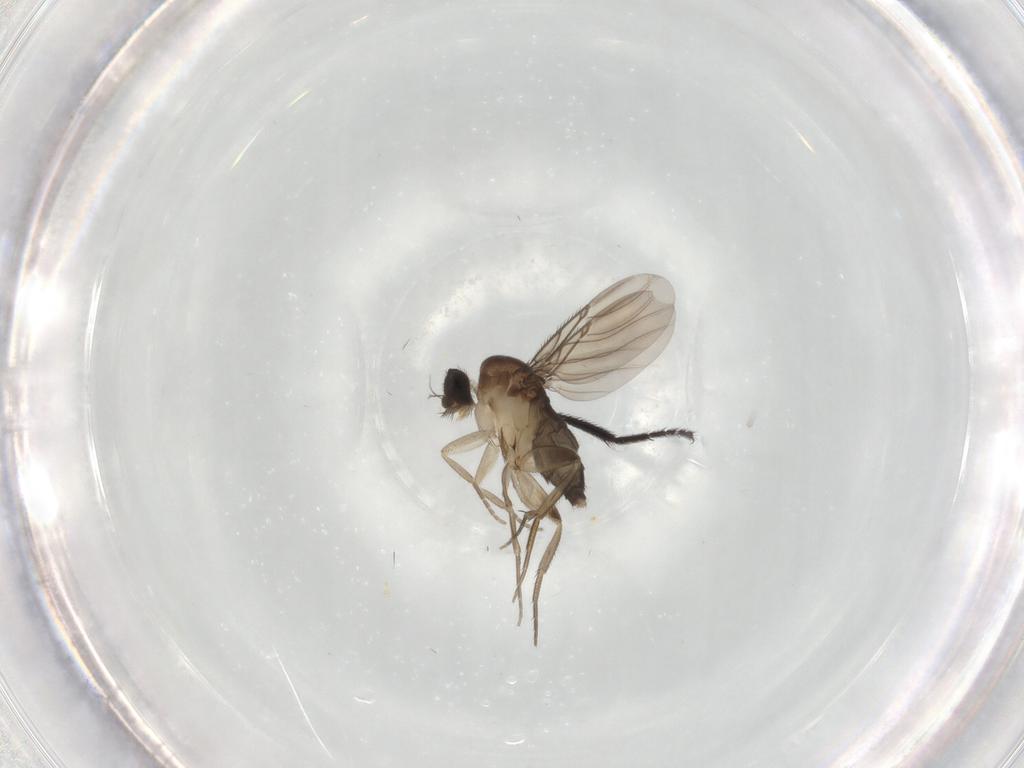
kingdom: Animalia
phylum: Arthropoda
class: Insecta
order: Diptera
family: Phoridae
